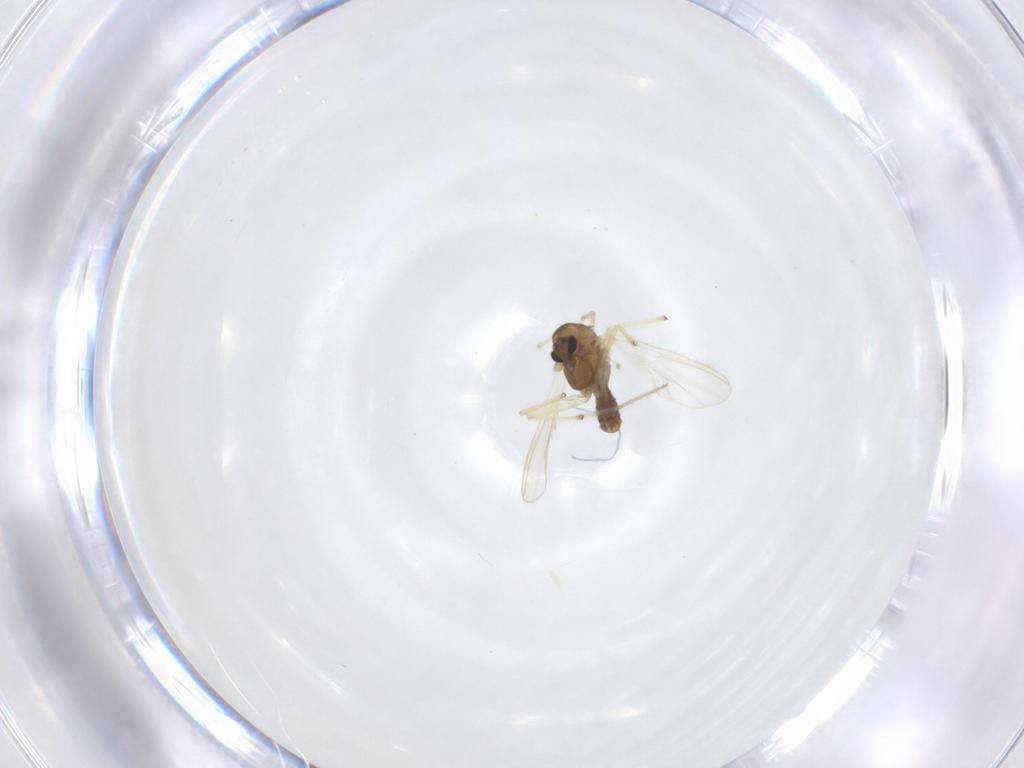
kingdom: Animalia
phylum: Arthropoda
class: Insecta
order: Diptera
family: Chironomidae
